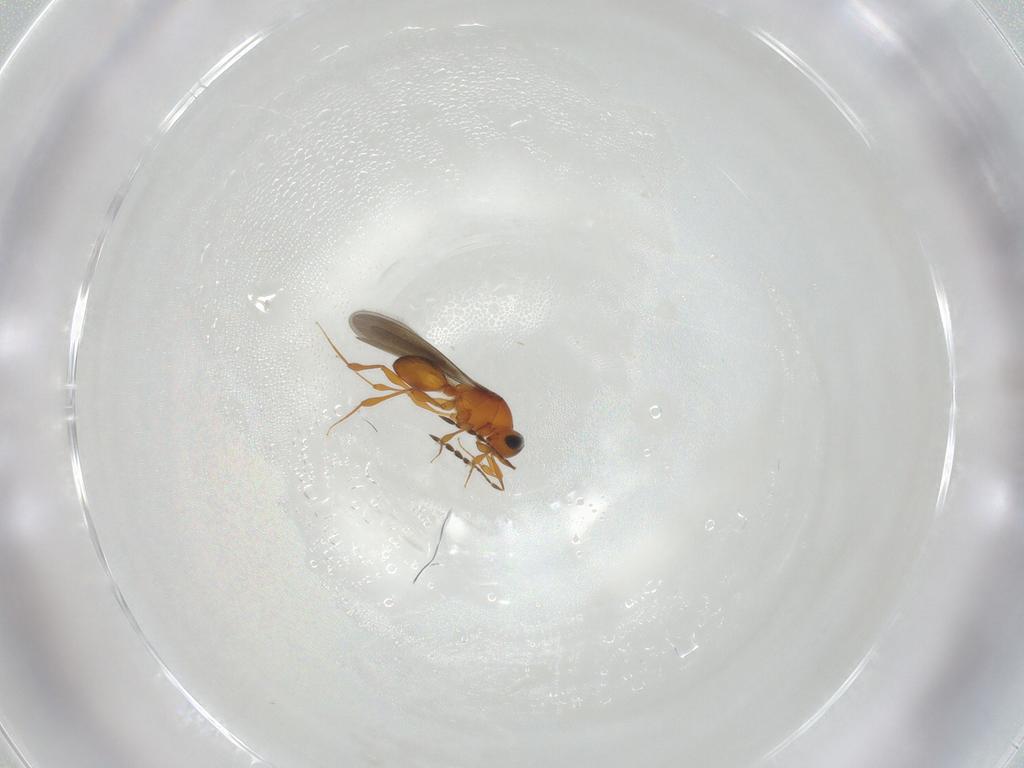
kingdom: Animalia
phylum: Arthropoda
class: Insecta
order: Hymenoptera
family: Platygastridae
